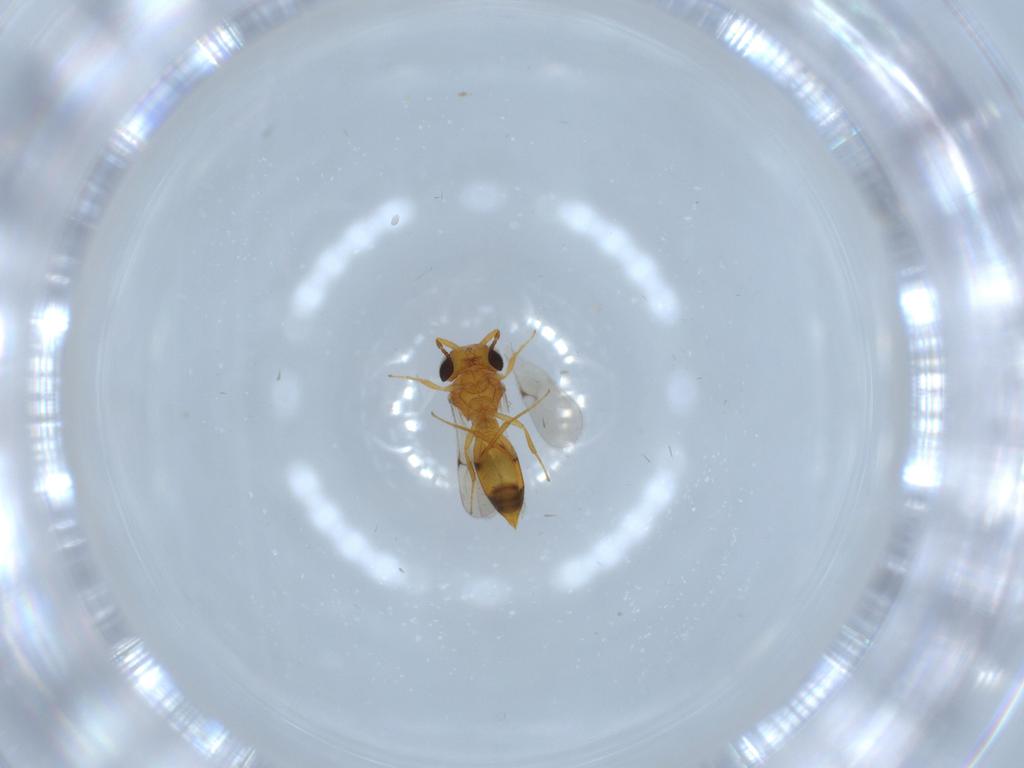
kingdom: Animalia
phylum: Arthropoda
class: Insecta
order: Hymenoptera
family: Scelionidae
